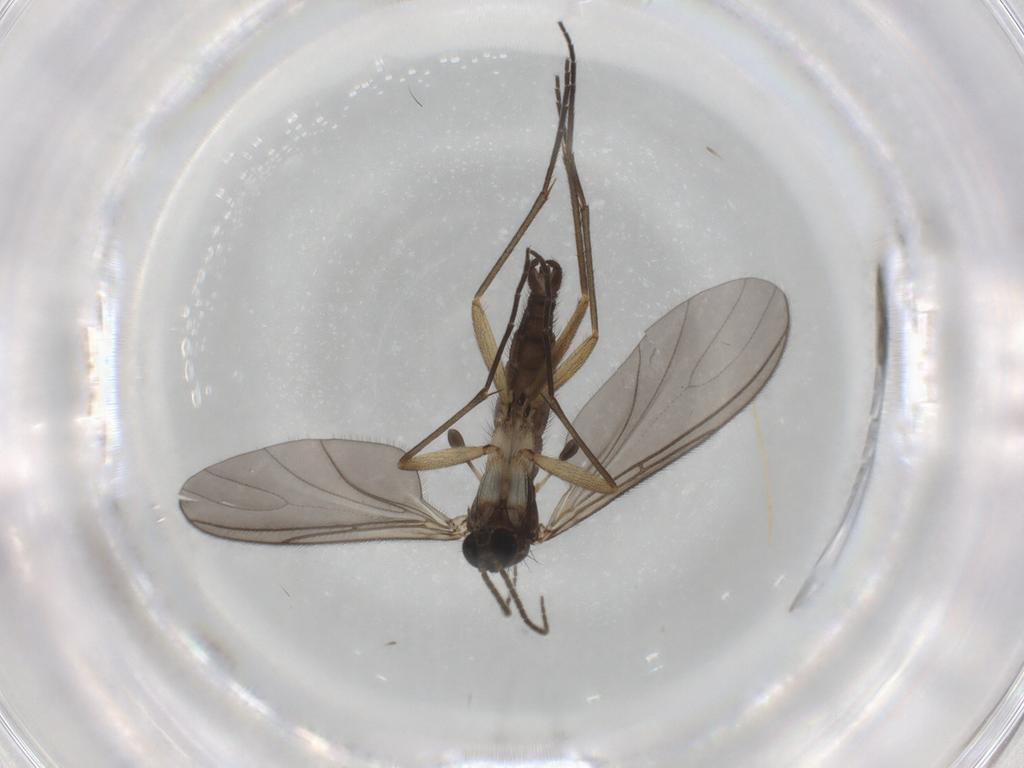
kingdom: Animalia
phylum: Arthropoda
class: Insecta
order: Diptera
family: Sciaridae
